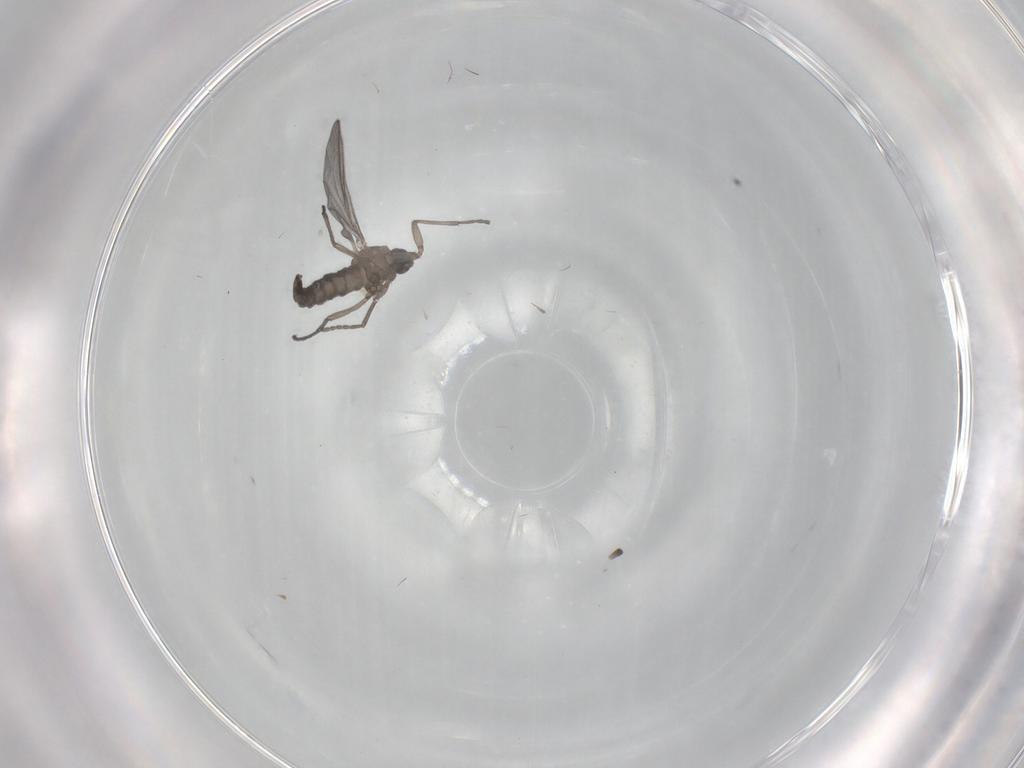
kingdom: Animalia
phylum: Arthropoda
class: Insecta
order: Diptera
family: Sciaridae
